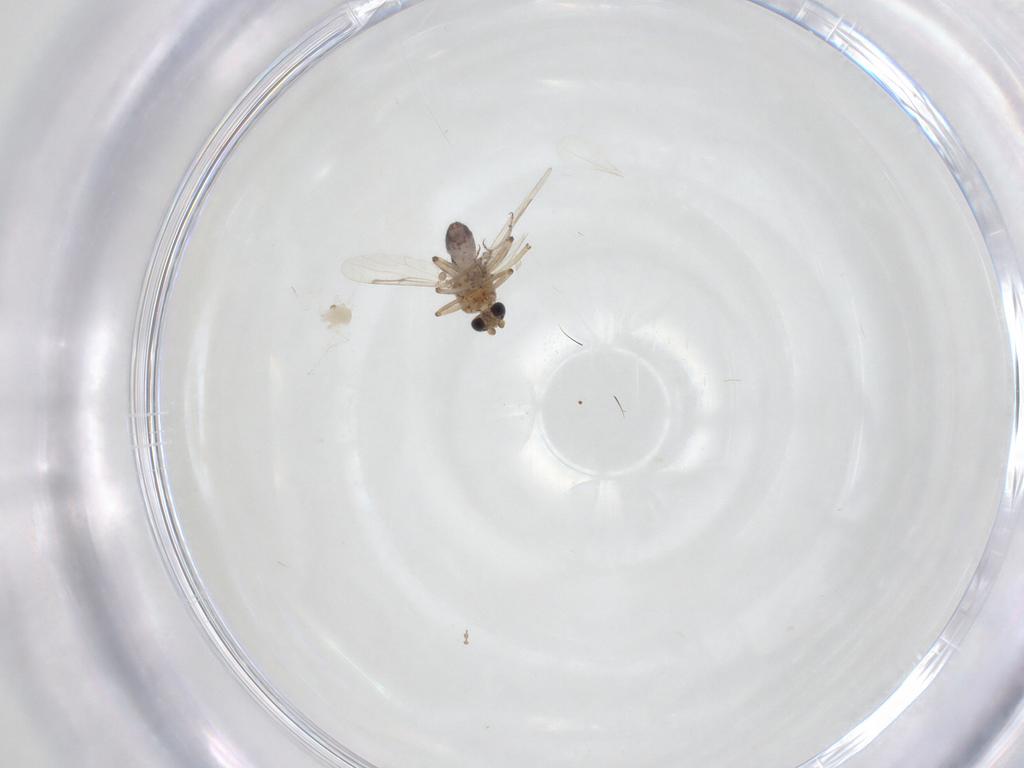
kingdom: Animalia
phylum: Arthropoda
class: Insecta
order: Diptera
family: Ceratopogonidae
